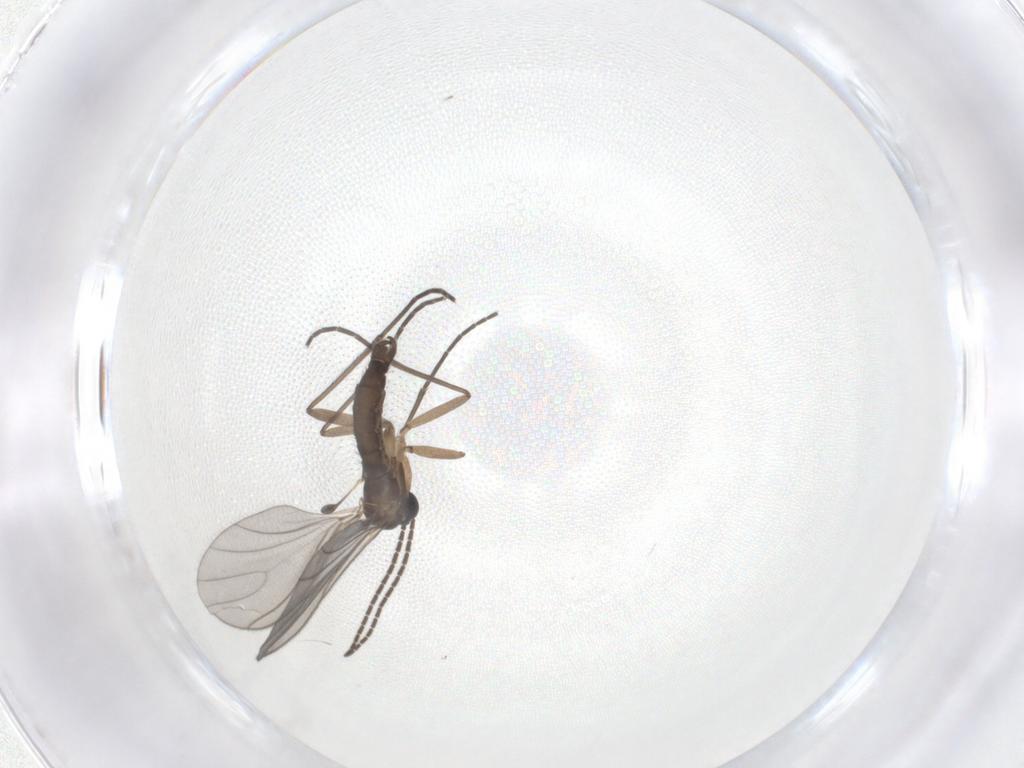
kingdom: Animalia
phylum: Arthropoda
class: Insecta
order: Diptera
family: Sciaridae
